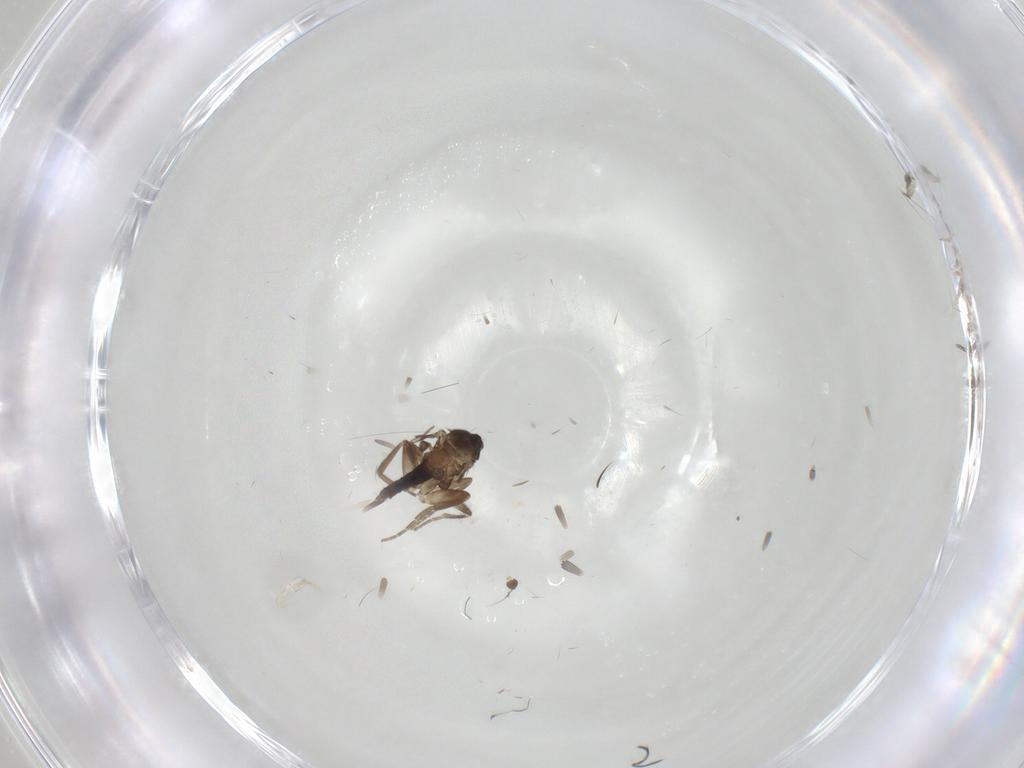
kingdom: Animalia
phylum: Arthropoda
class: Insecta
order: Diptera
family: Phoridae
